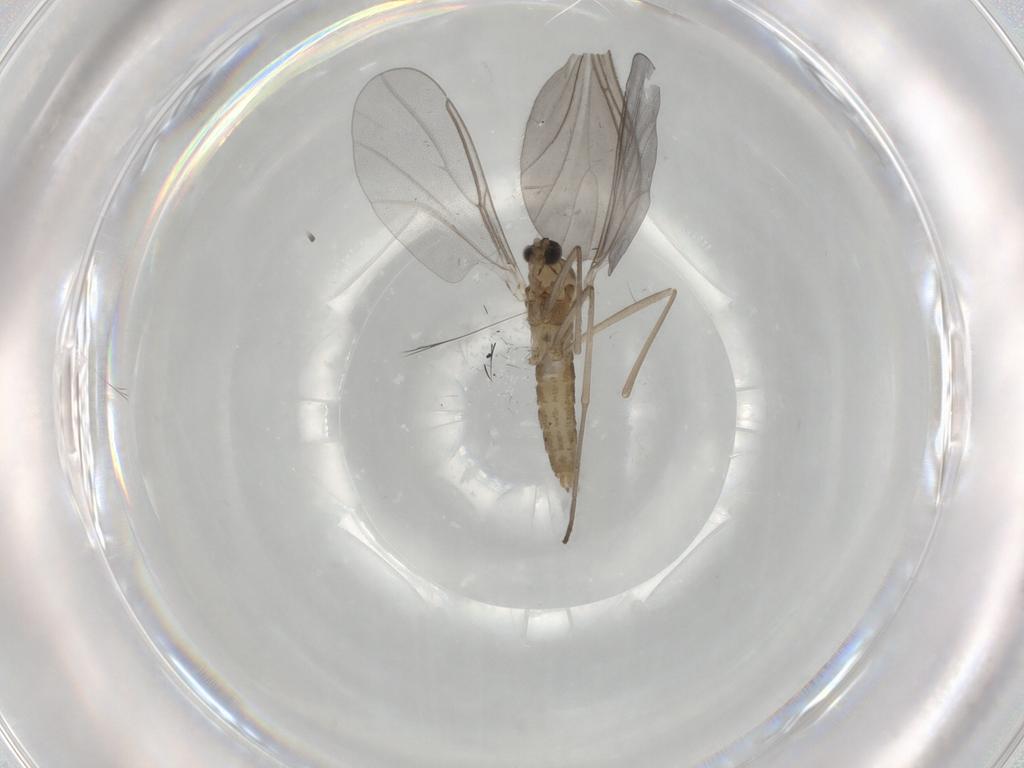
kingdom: Animalia
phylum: Arthropoda
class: Insecta
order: Diptera
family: Cecidomyiidae
